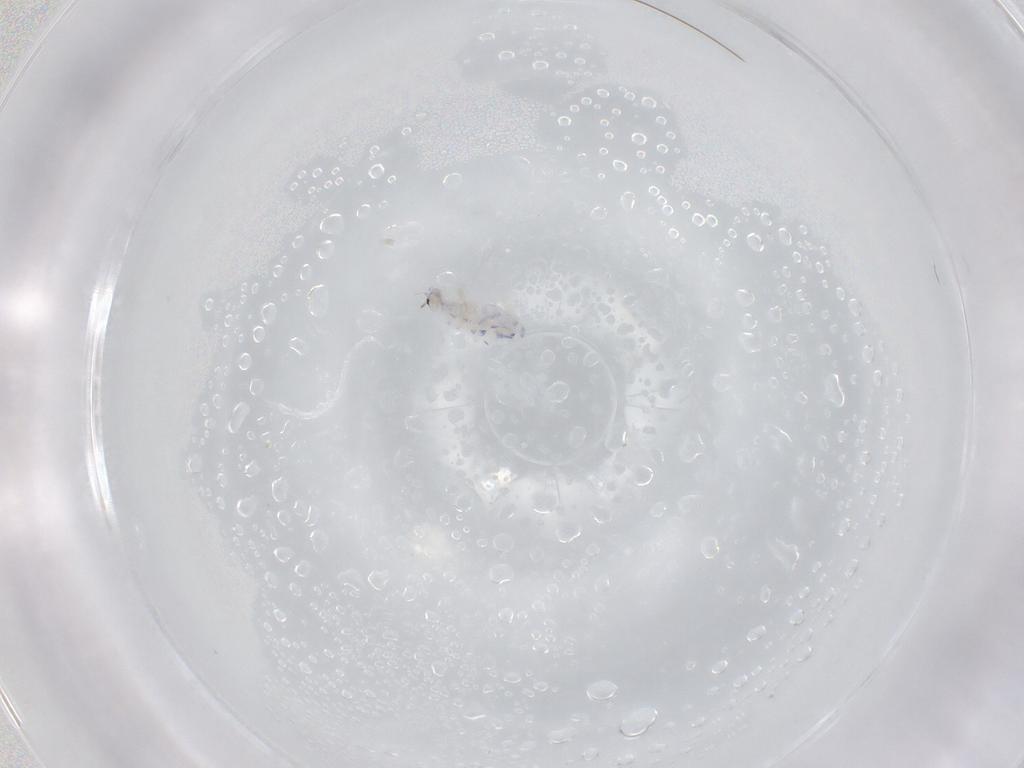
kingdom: Animalia
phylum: Arthropoda
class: Collembola
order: Entomobryomorpha
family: Entomobryidae
